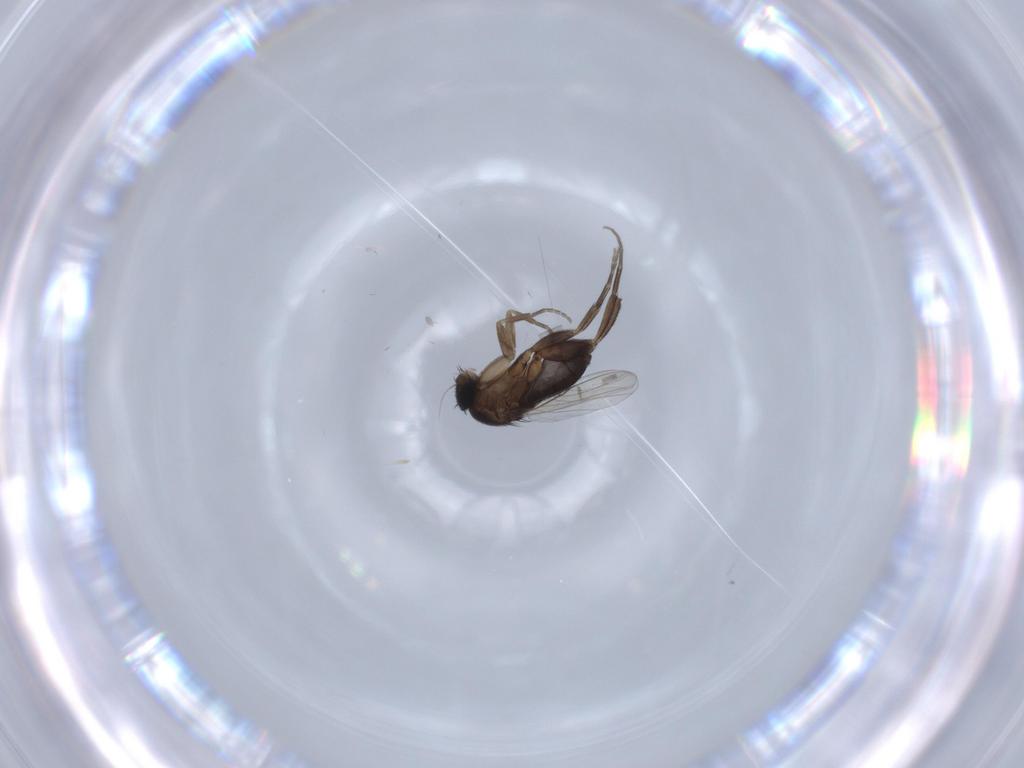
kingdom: Animalia
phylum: Arthropoda
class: Insecta
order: Diptera
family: Phoridae
